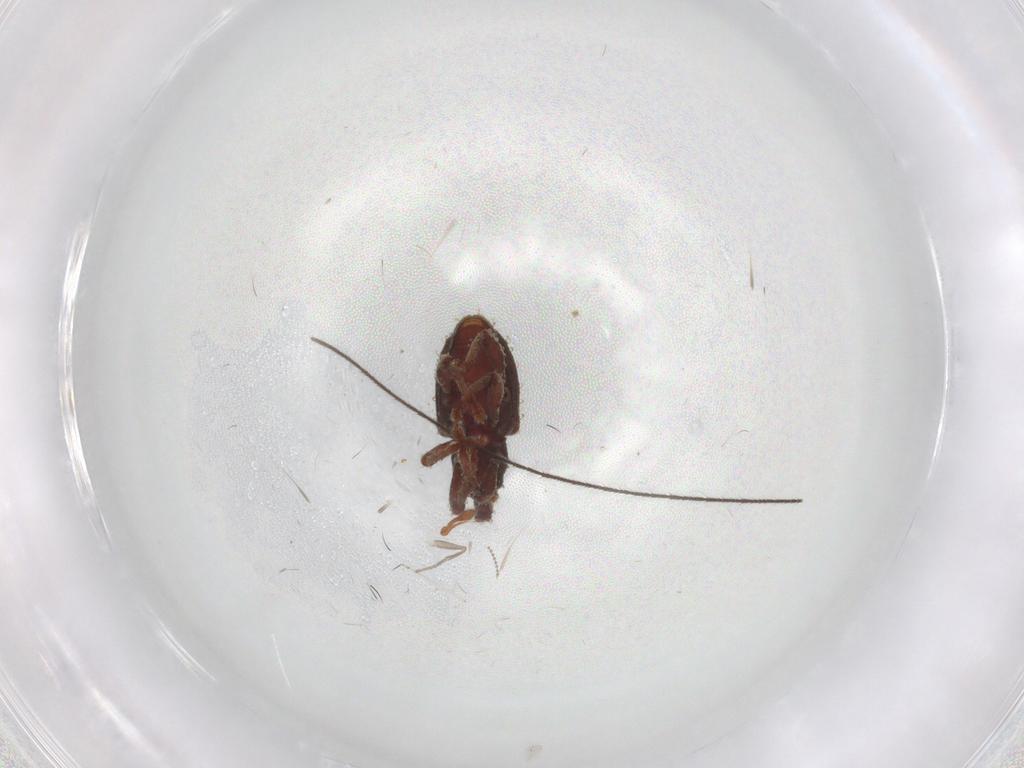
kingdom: Animalia
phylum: Arthropoda
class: Insecta
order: Coleoptera
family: Curculionidae
